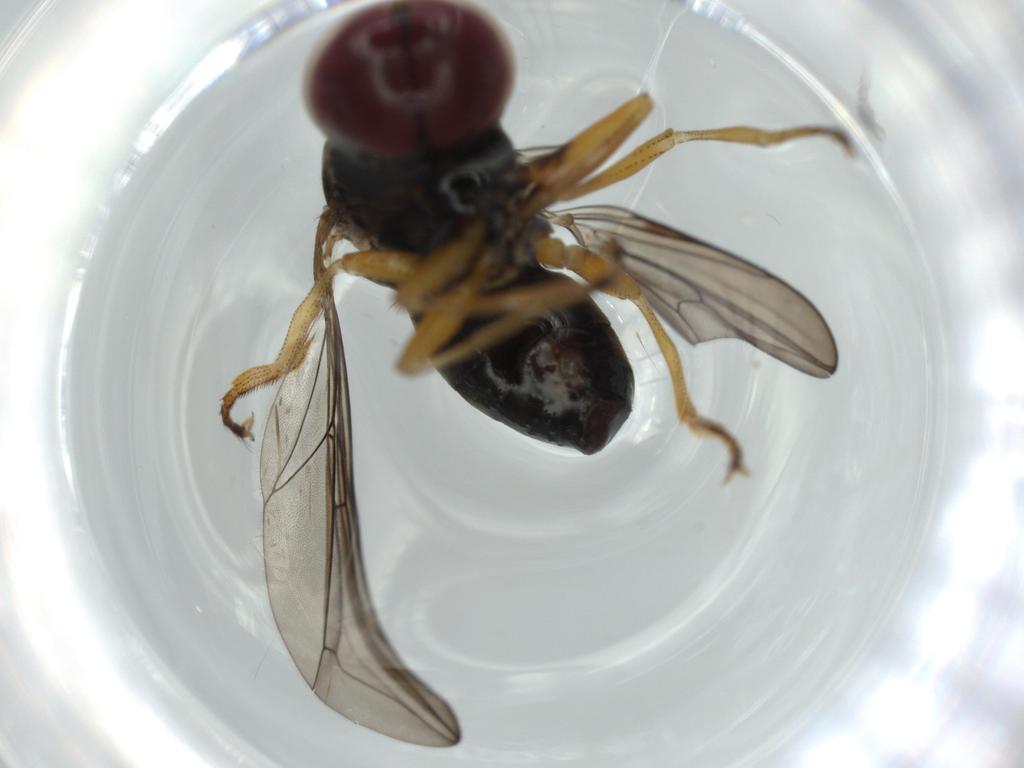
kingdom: Animalia
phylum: Arthropoda
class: Insecta
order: Diptera
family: Pipunculidae
